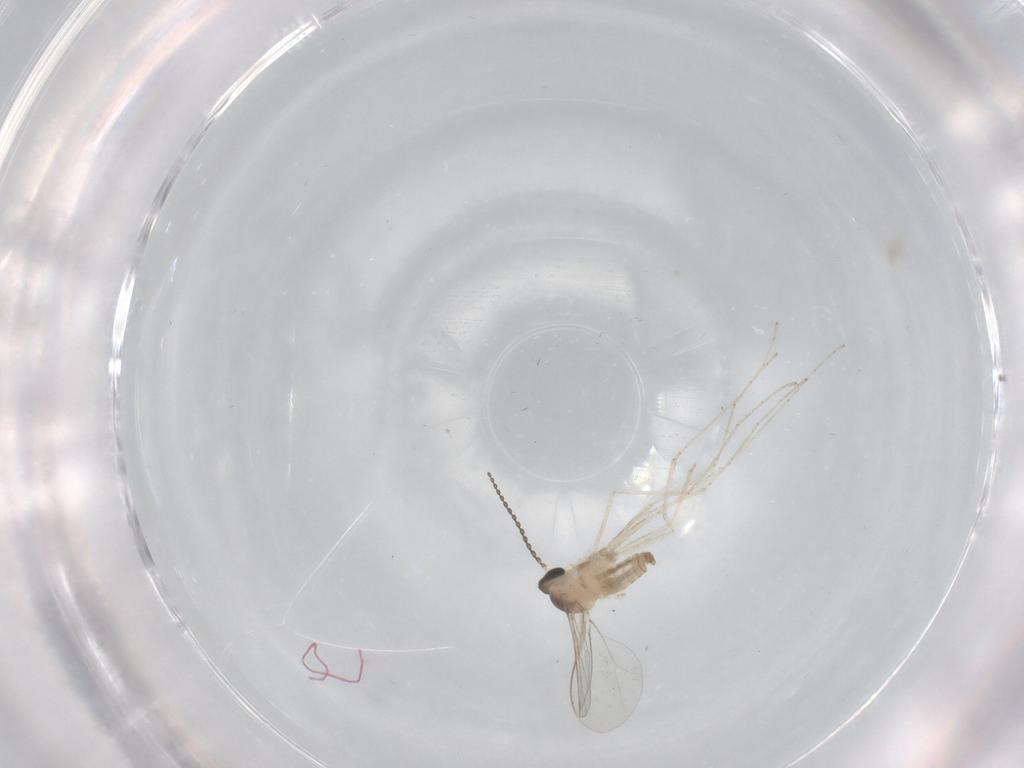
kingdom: Animalia
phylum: Arthropoda
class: Insecta
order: Diptera
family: Cecidomyiidae
